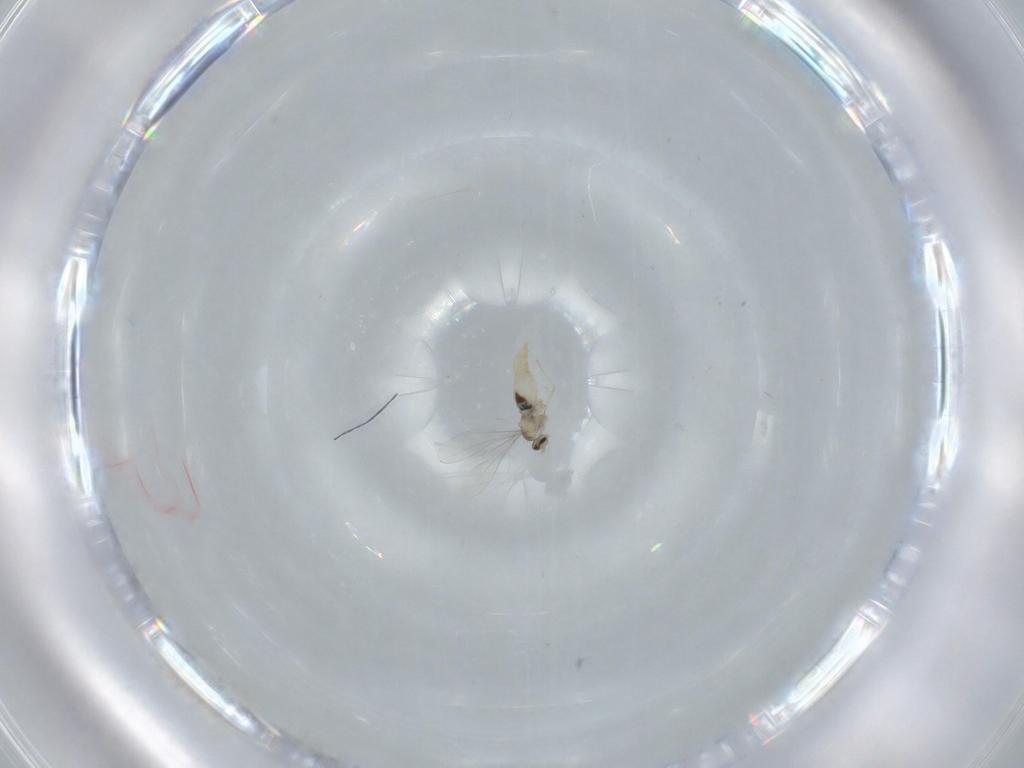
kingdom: Animalia
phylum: Arthropoda
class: Insecta
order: Diptera
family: Cecidomyiidae
